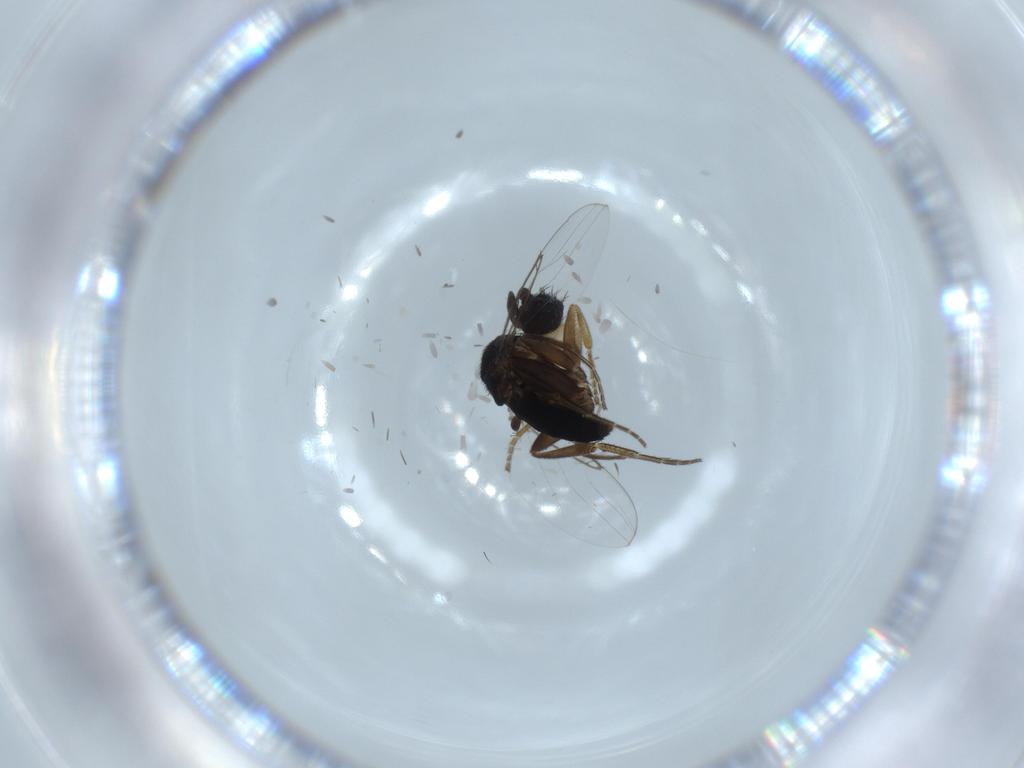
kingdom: Animalia
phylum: Arthropoda
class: Insecta
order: Diptera
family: Phoridae
